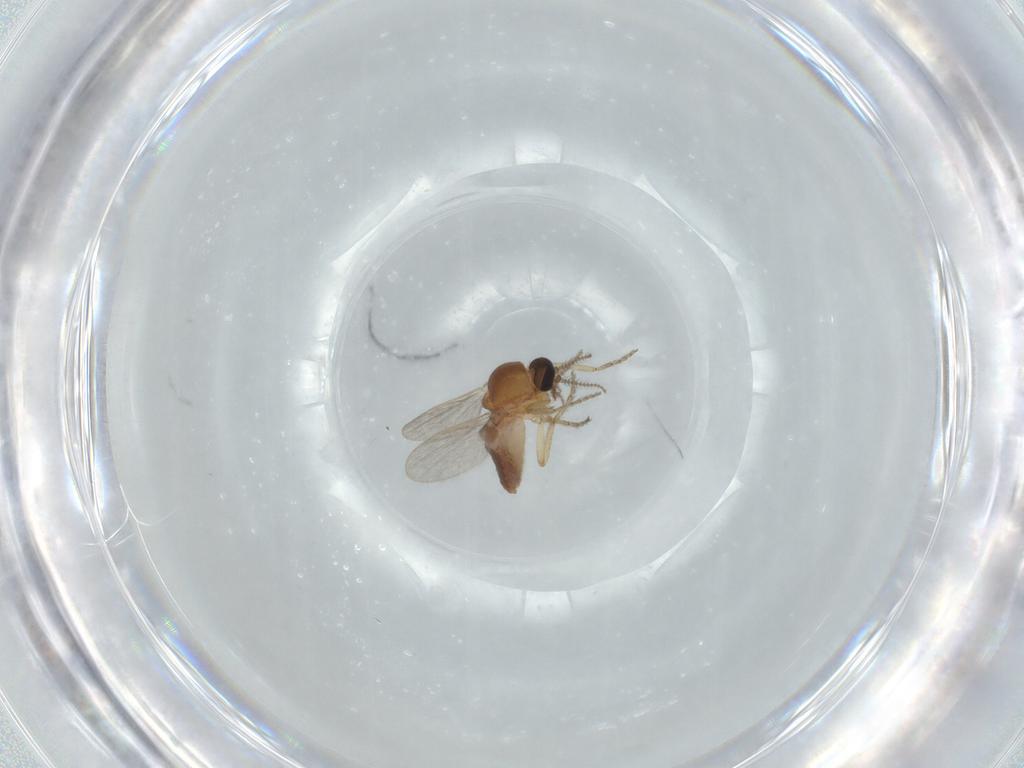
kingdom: Animalia
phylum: Arthropoda
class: Insecta
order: Diptera
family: Ceratopogonidae
